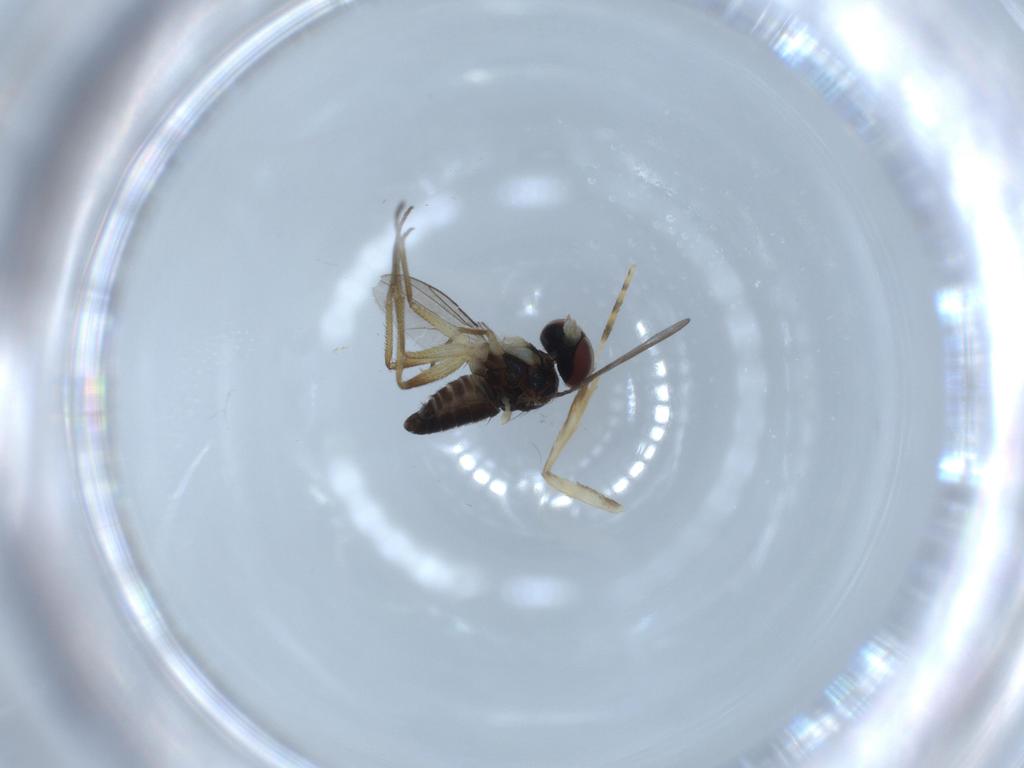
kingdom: Animalia
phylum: Arthropoda
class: Insecta
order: Diptera
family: Dolichopodidae
